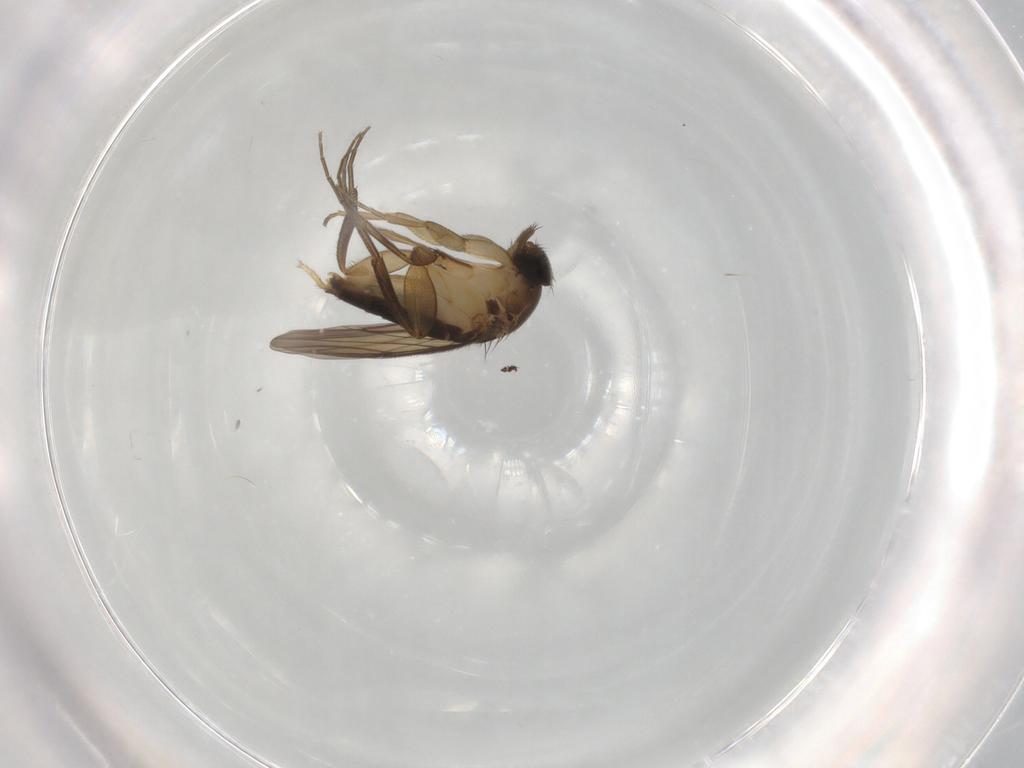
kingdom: Animalia
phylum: Arthropoda
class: Insecta
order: Diptera
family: Phoridae
